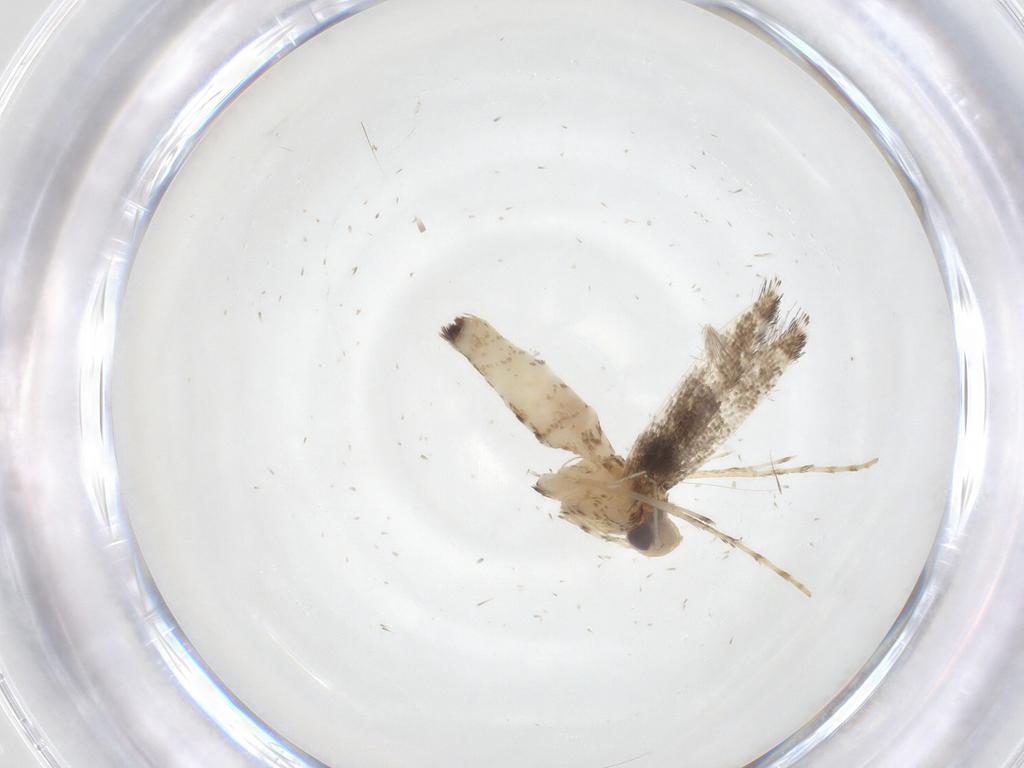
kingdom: Animalia
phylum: Arthropoda
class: Insecta
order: Lepidoptera
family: Gracillariidae
